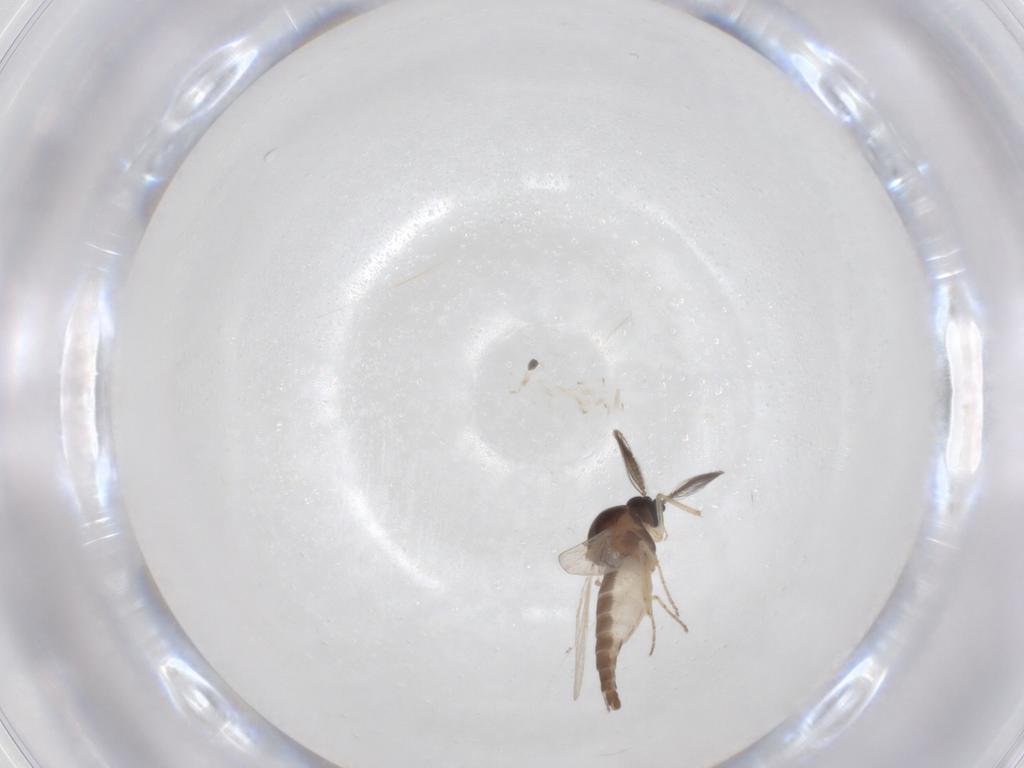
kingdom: Animalia
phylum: Arthropoda
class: Insecta
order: Diptera
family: Ceratopogonidae
